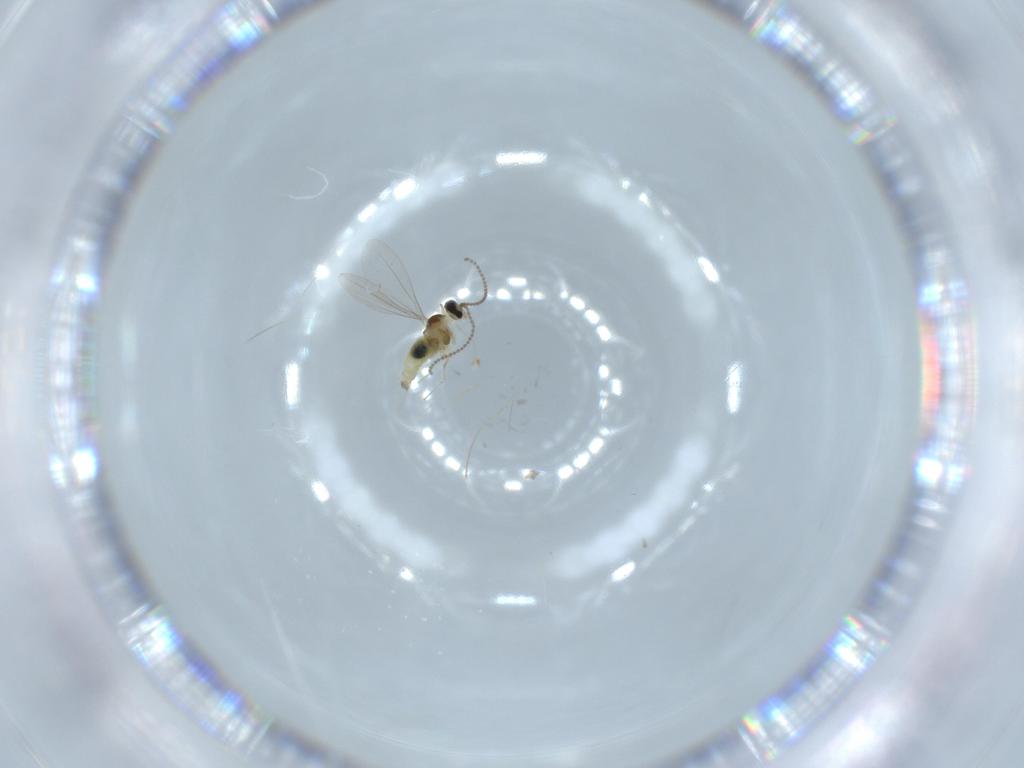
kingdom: Animalia
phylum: Arthropoda
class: Insecta
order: Diptera
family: Cecidomyiidae
